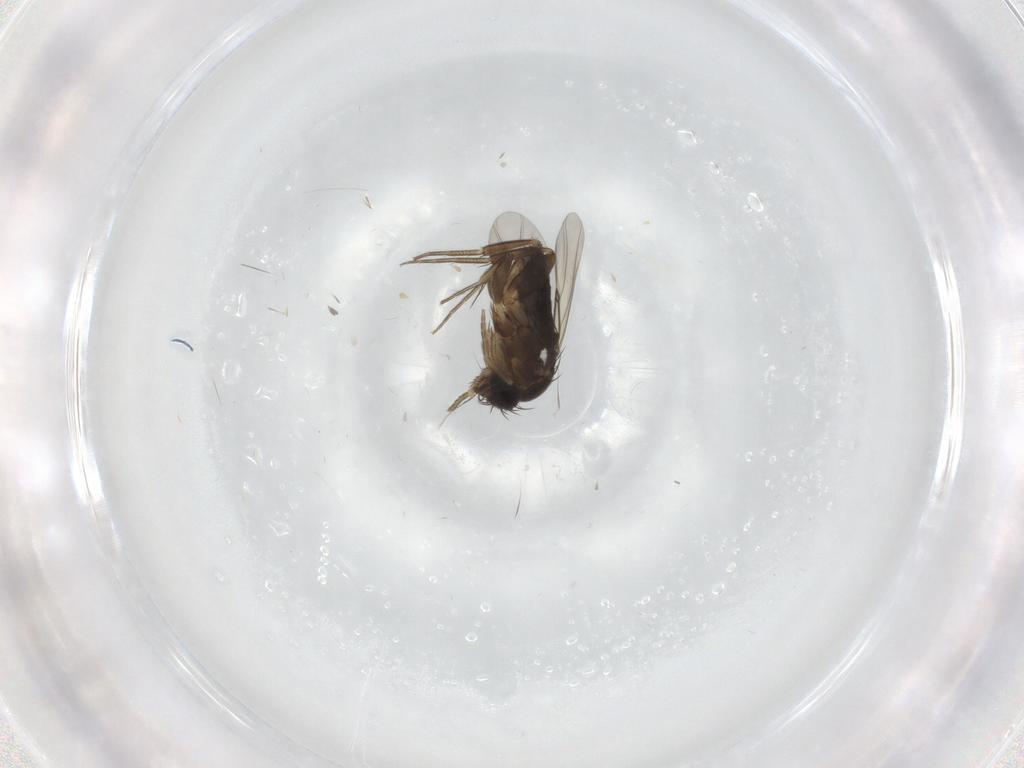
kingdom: Animalia
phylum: Arthropoda
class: Insecta
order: Diptera
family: Phoridae
